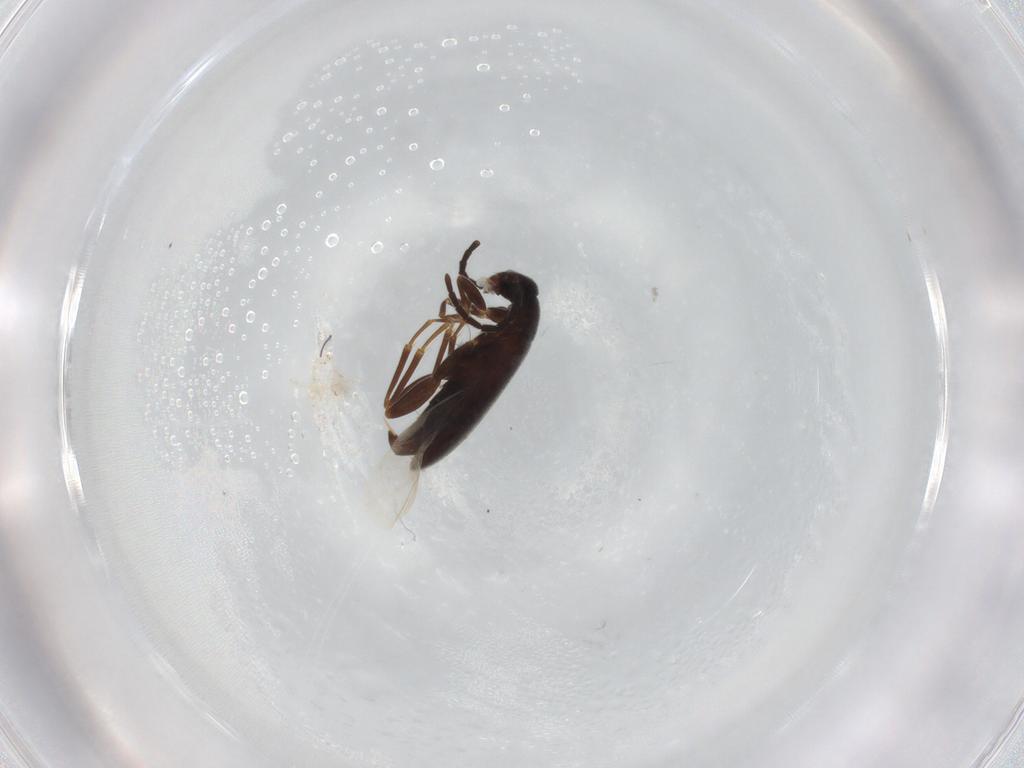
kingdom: Animalia
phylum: Arthropoda
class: Insecta
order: Coleoptera
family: Scraptiidae
